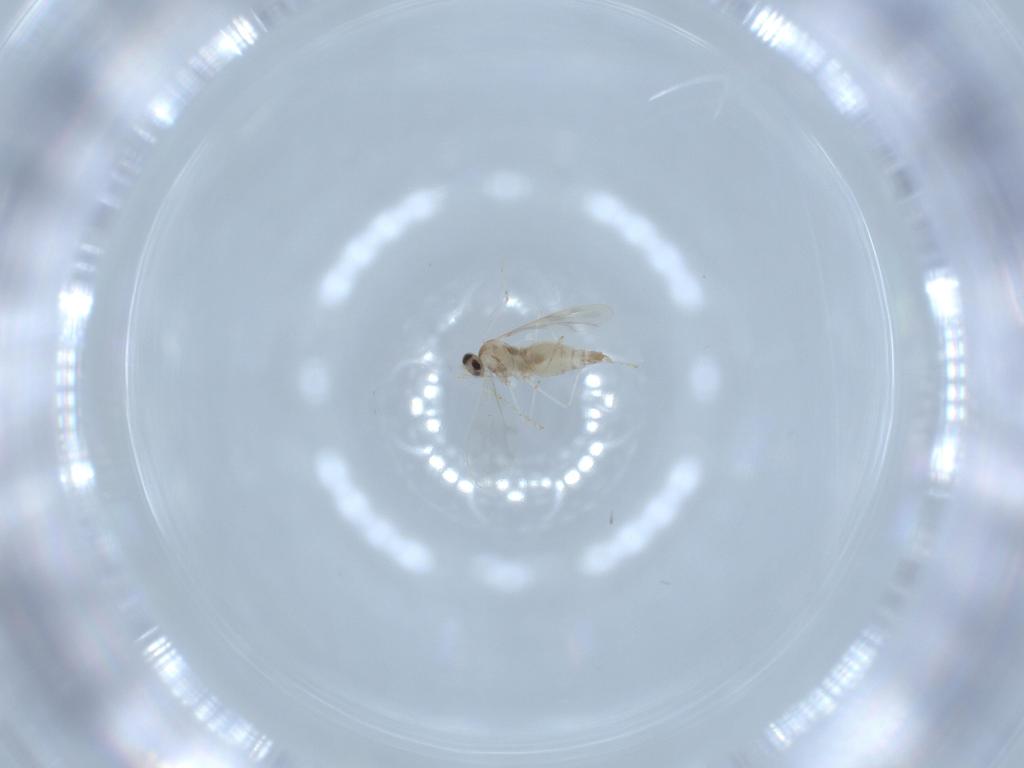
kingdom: Animalia
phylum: Arthropoda
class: Insecta
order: Diptera
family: Cecidomyiidae
